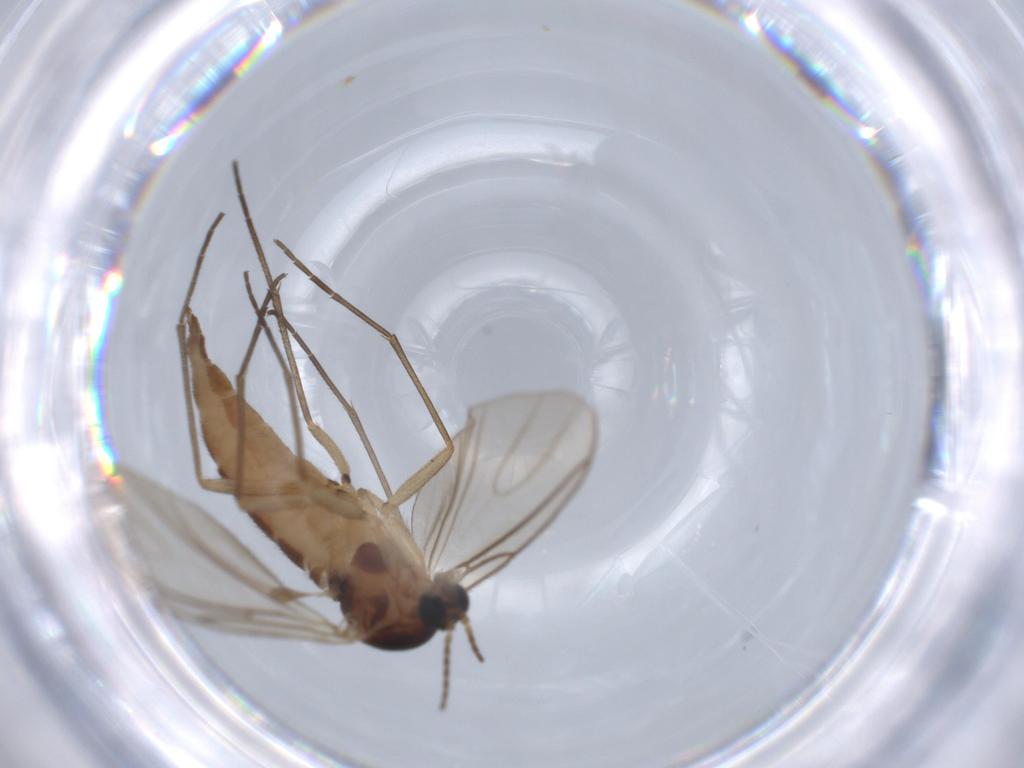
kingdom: Animalia
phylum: Arthropoda
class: Insecta
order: Diptera
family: Sciaridae
